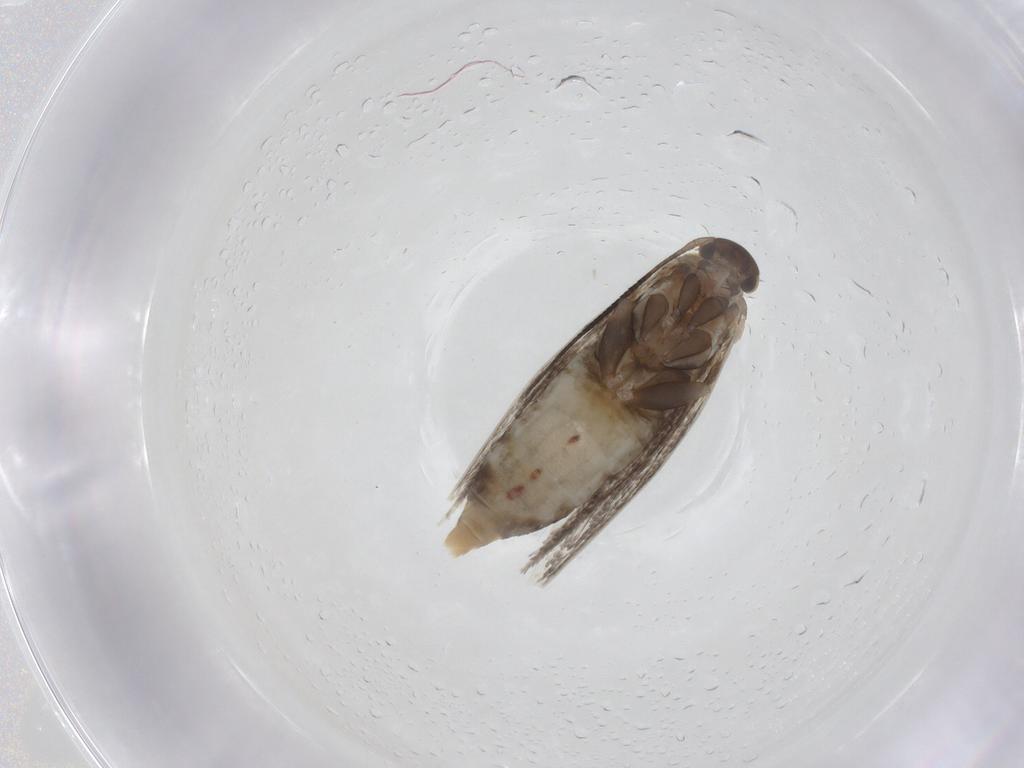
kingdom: Animalia
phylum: Arthropoda
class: Insecta
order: Lepidoptera
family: Elachistidae
